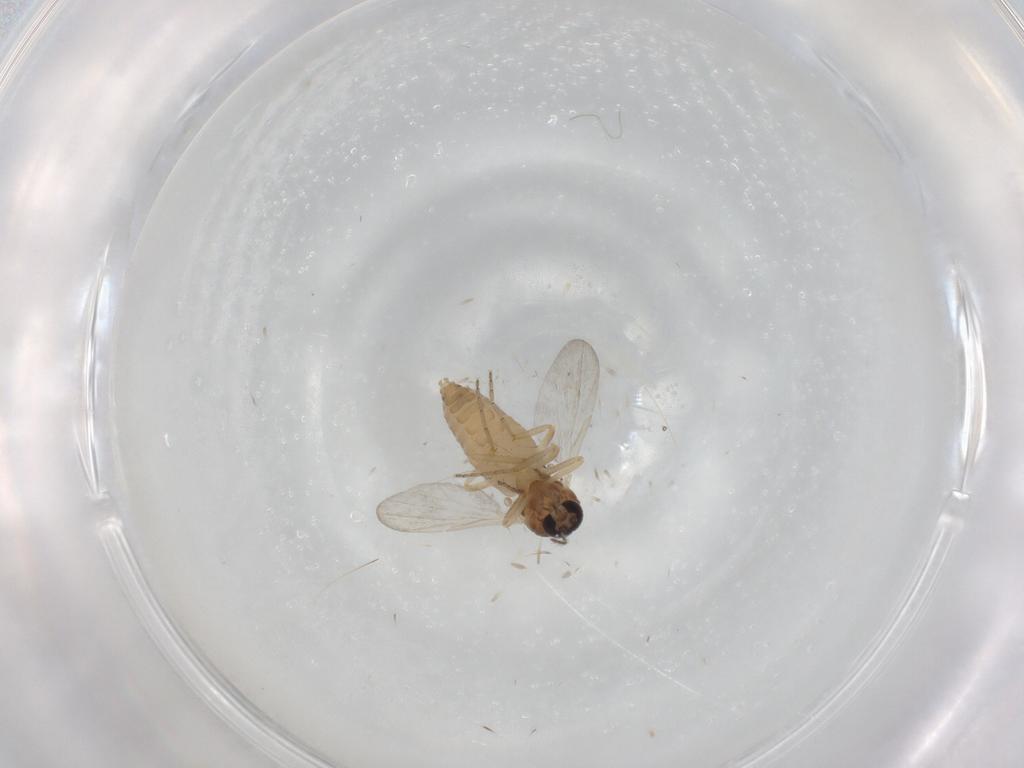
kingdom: Animalia
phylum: Arthropoda
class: Insecta
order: Diptera
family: Ceratopogonidae
